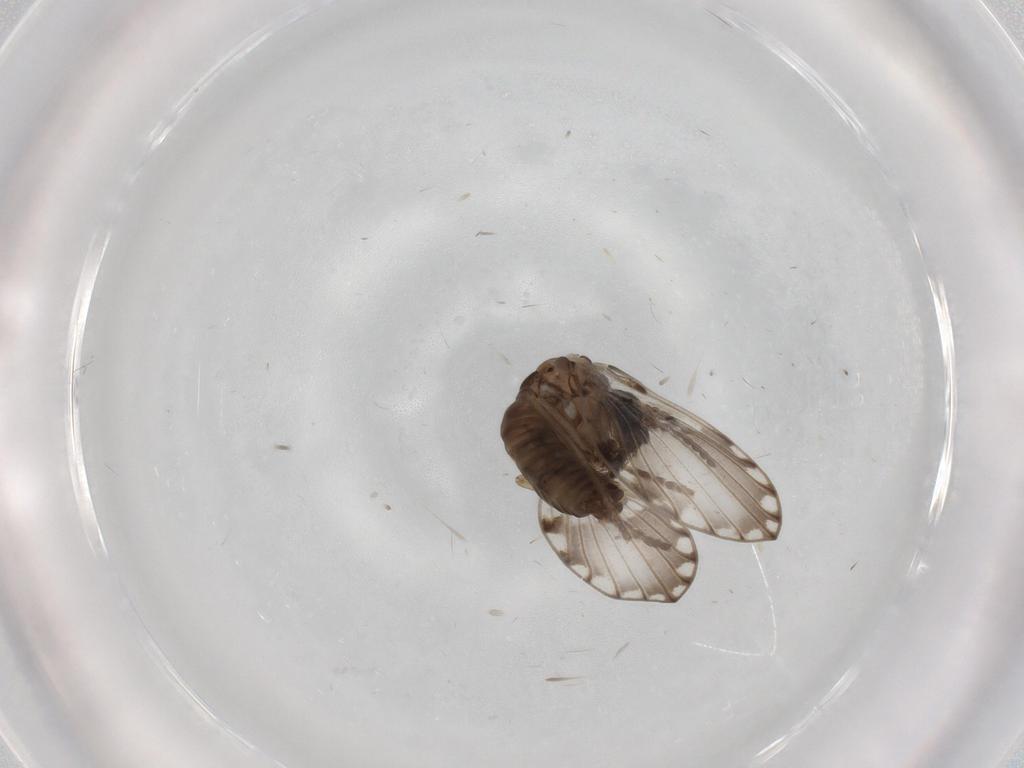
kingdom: Animalia
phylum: Arthropoda
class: Insecta
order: Diptera
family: Hybotidae
